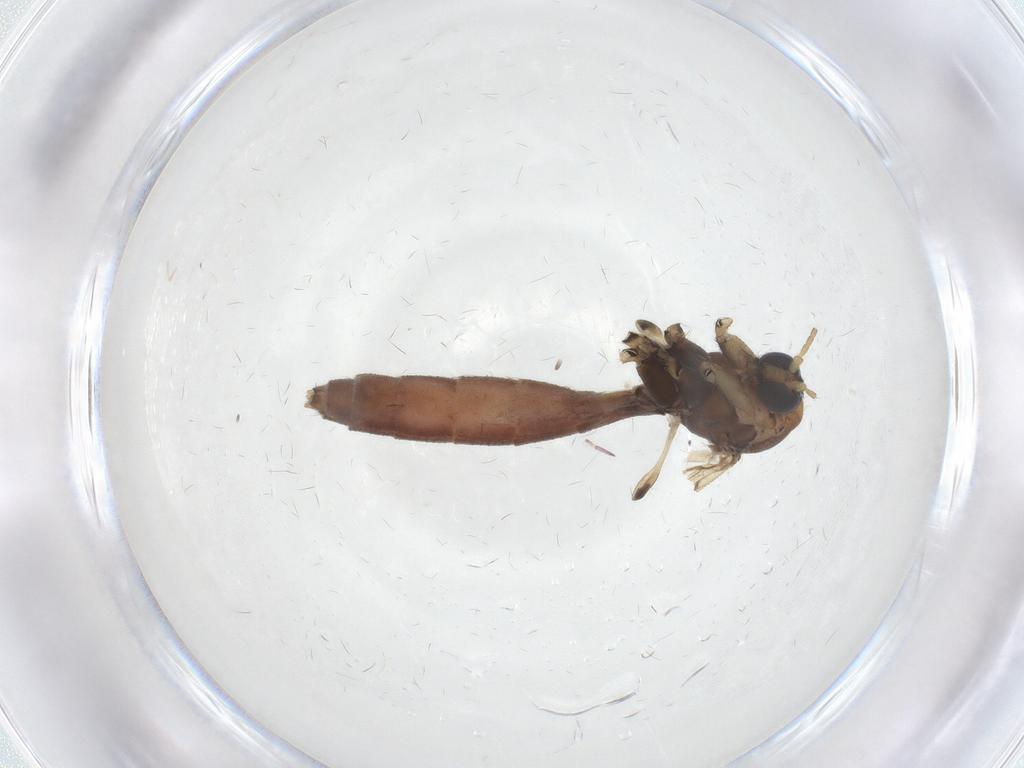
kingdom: Animalia
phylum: Arthropoda
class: Insecta
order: Diptera
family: Mycetophilidae
